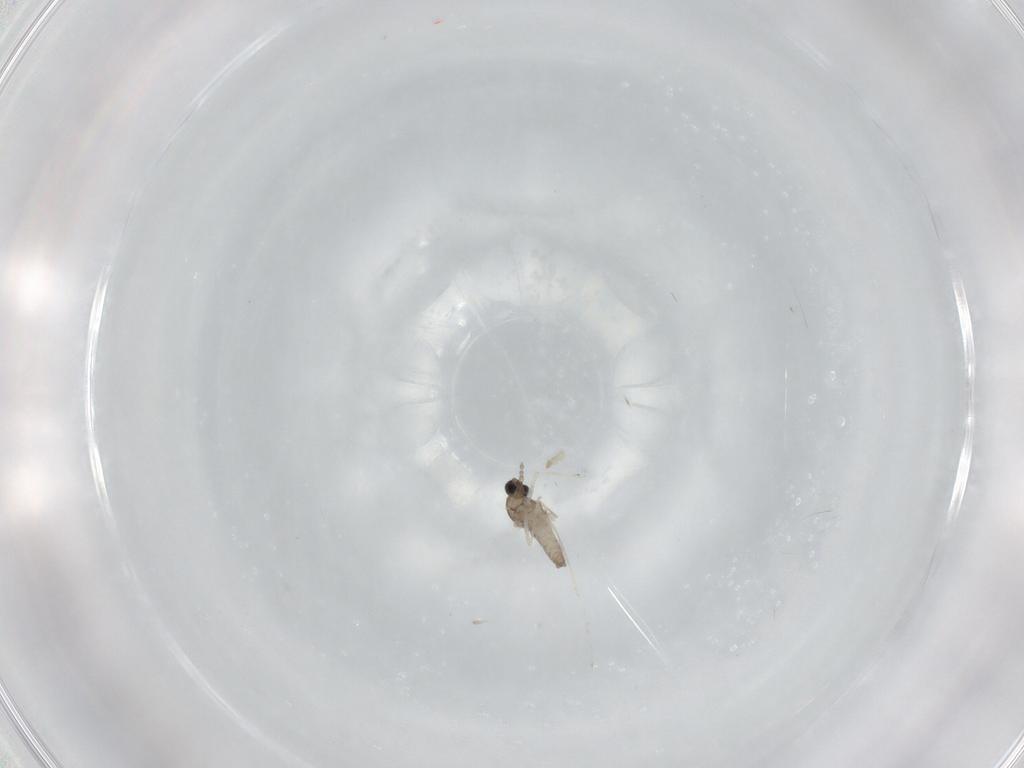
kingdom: Animalia
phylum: Arthropoda
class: Insecta
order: Diptera
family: Cecidomyiidae
